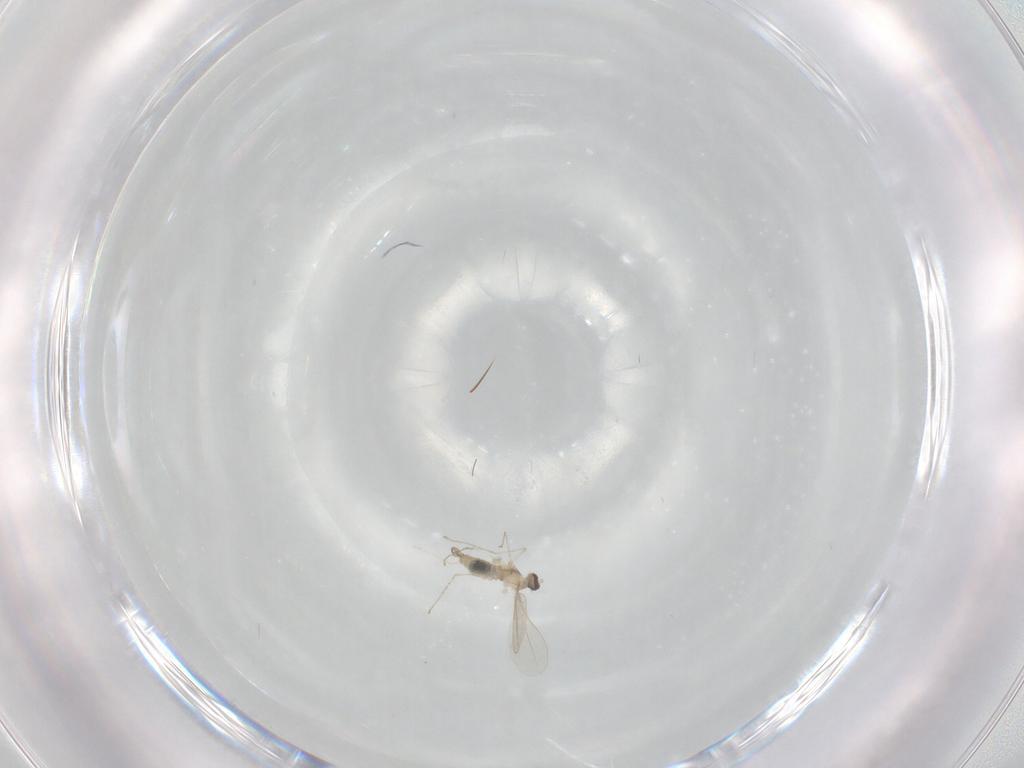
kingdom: Animalia
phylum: Arthropoda
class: Insecta
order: Diptera
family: Cecidomyiidae
